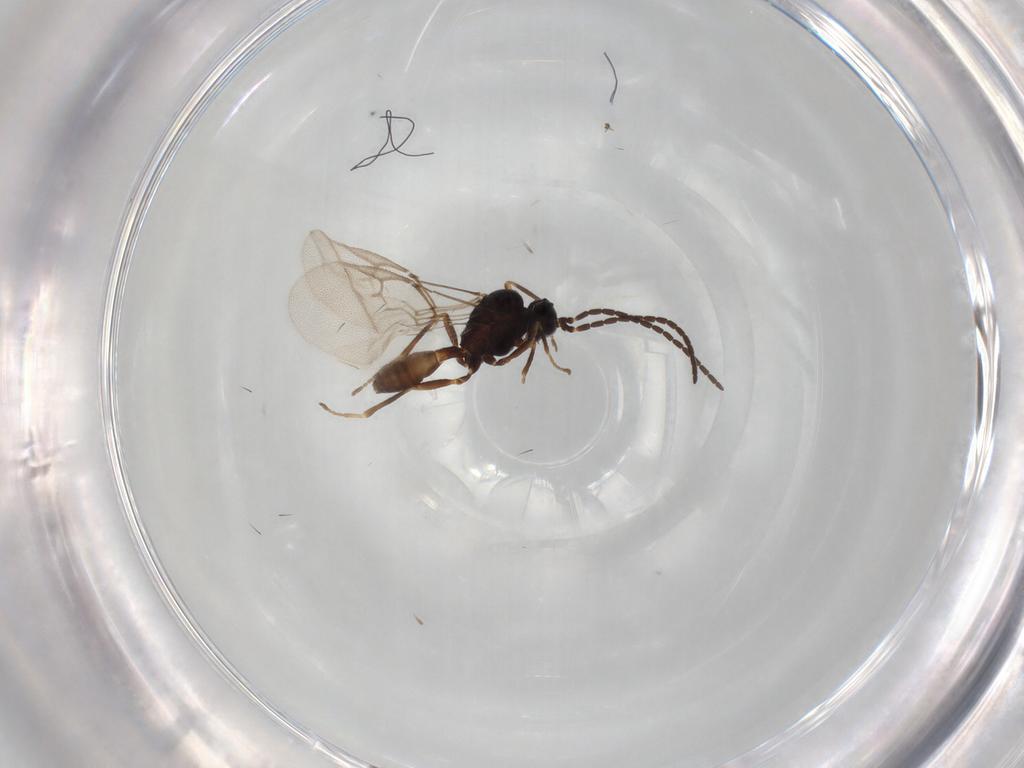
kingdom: Animalia
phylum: Arthropoda
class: Insecta
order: Hymenoptera
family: Braconidae
